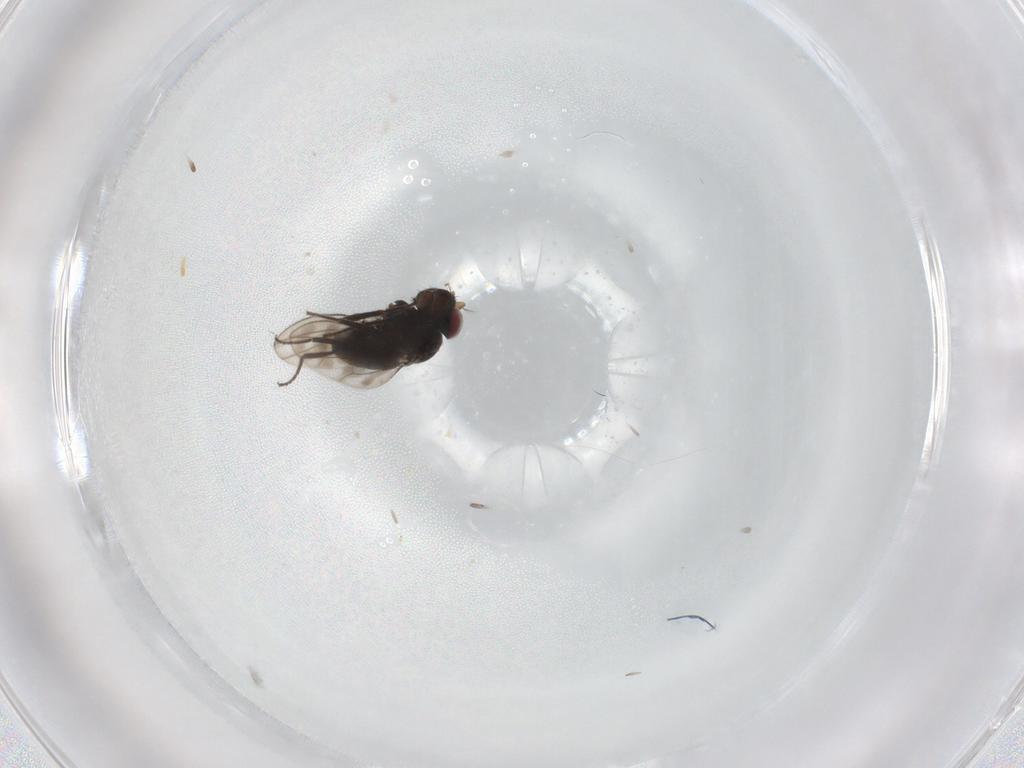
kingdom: Animalia
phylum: Arthropoda
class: Insecta
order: Diptera
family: Ephydridae
